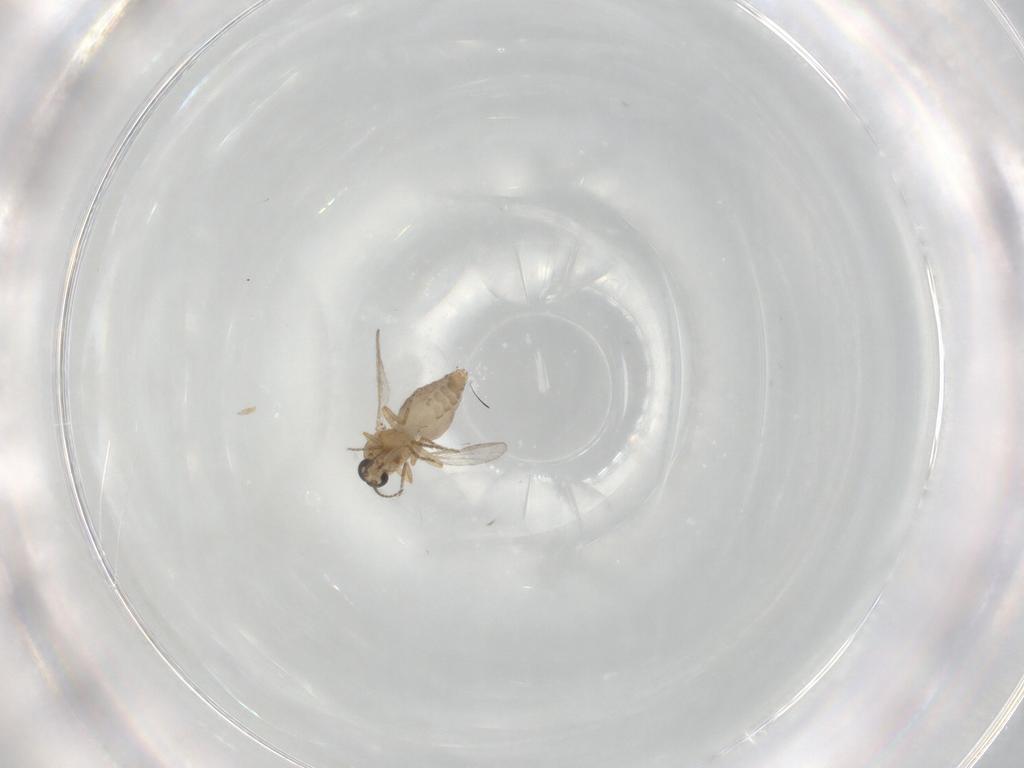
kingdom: Animalia
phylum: Arthropoda
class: Insecta
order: Diptera
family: Ceratopogonidae
